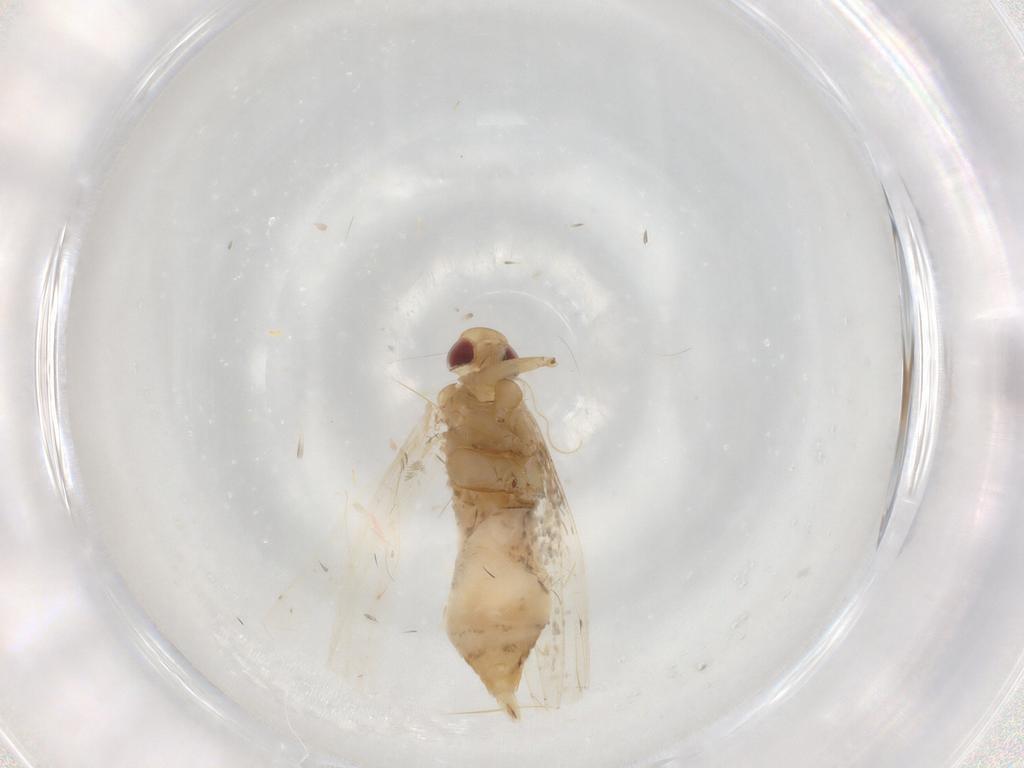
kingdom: Animalia
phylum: Arthropoda
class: Insecta
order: Lepidoptera
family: Cosmopterigidae
